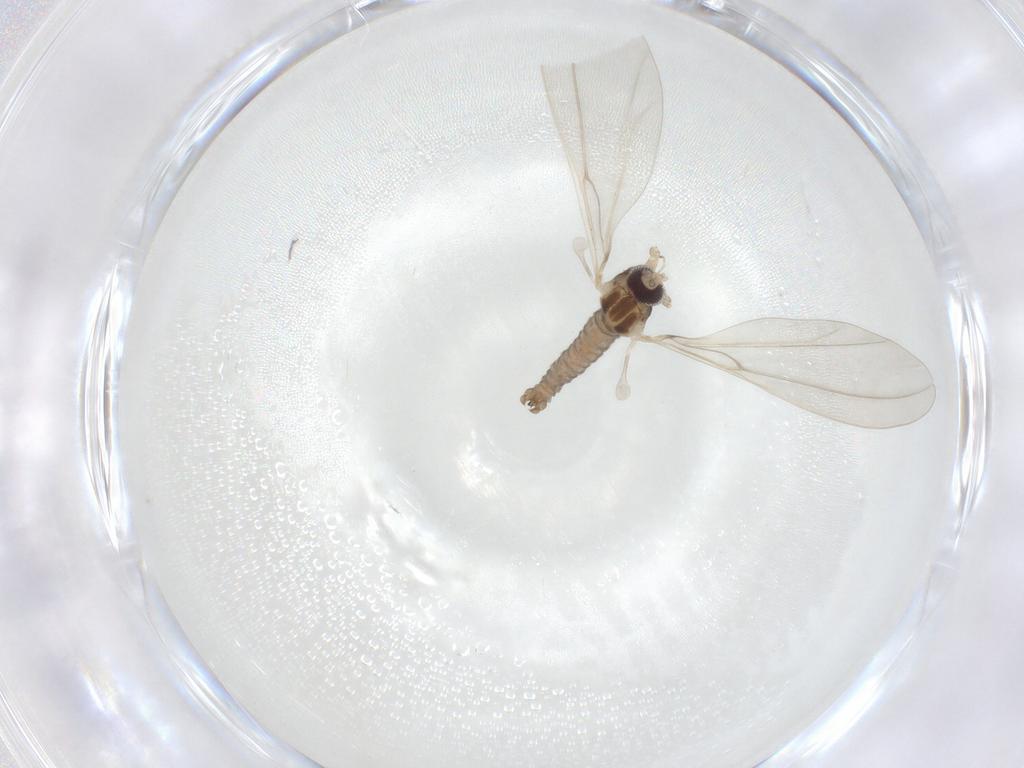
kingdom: Animalia
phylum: Arthropoda
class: Insecta
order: Diptera
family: Cecidomyiidae
